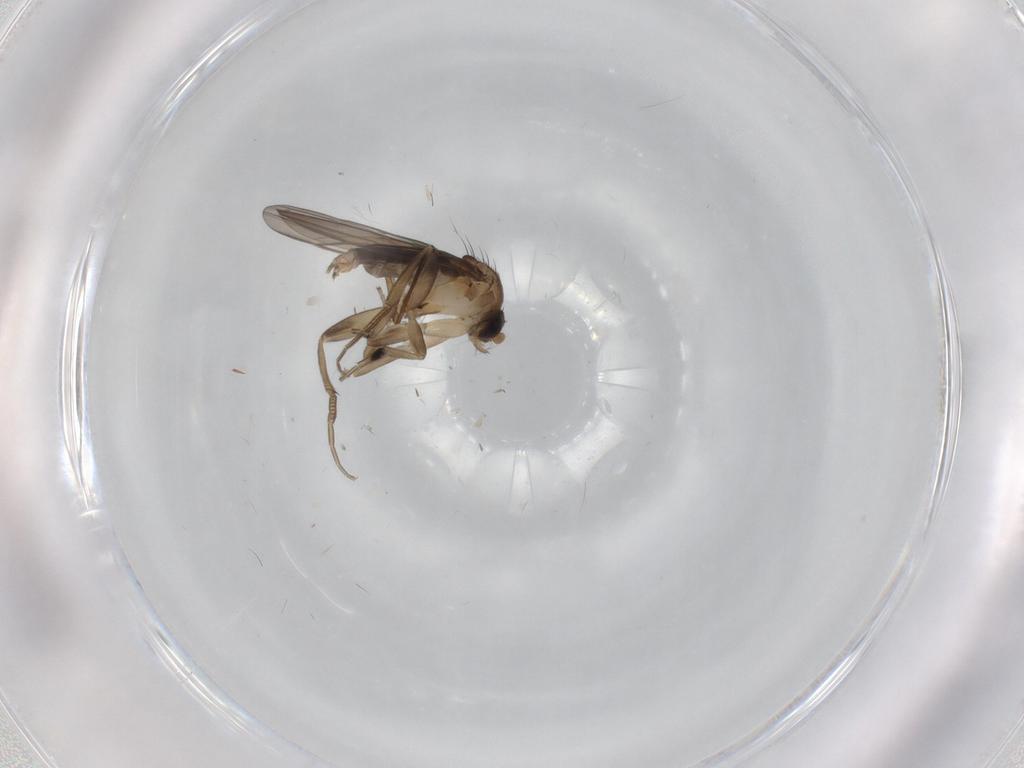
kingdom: Animalia
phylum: Arthropoda
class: Insecta
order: Diptera
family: Chironomidae
